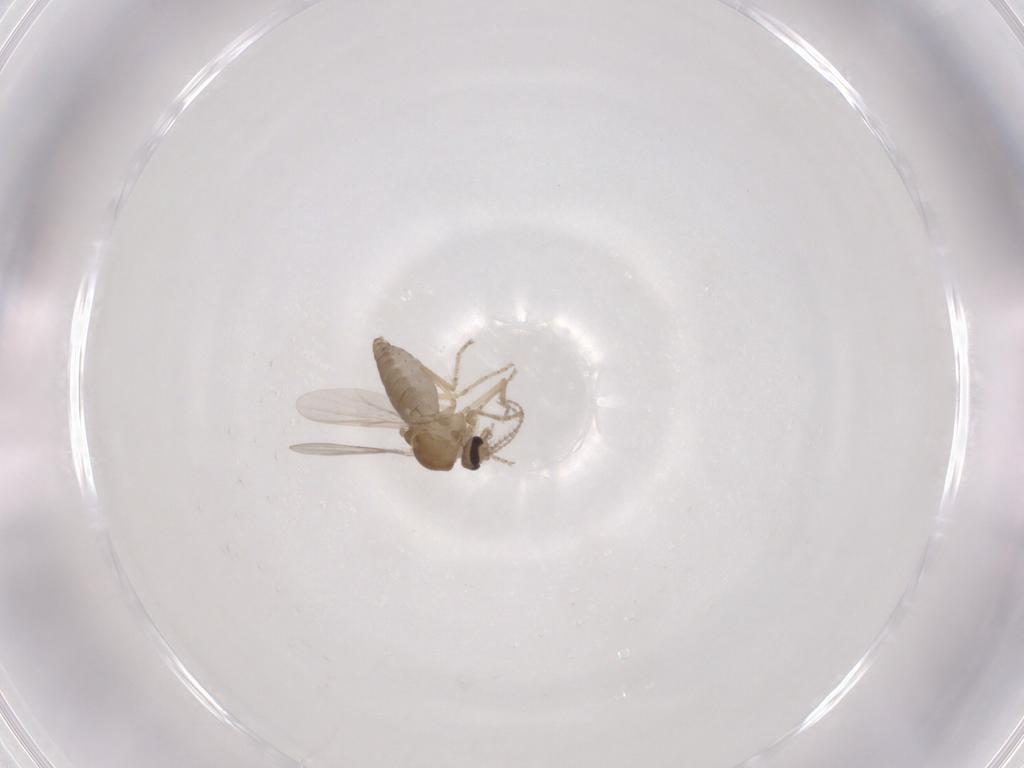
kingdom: Animalia
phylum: Arthropoda
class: Insecta
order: Diptera
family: Ceratopogonidae
